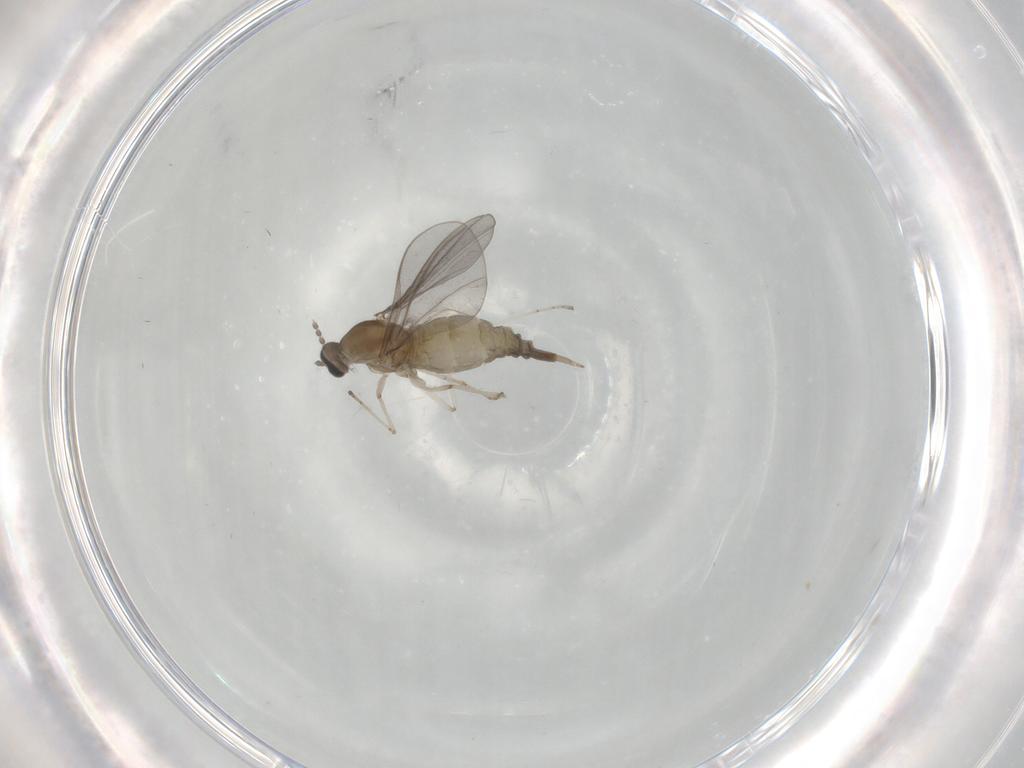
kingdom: Animalia
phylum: Arthropoda
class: Insecta
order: Diptera
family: Cecidomyiidae
